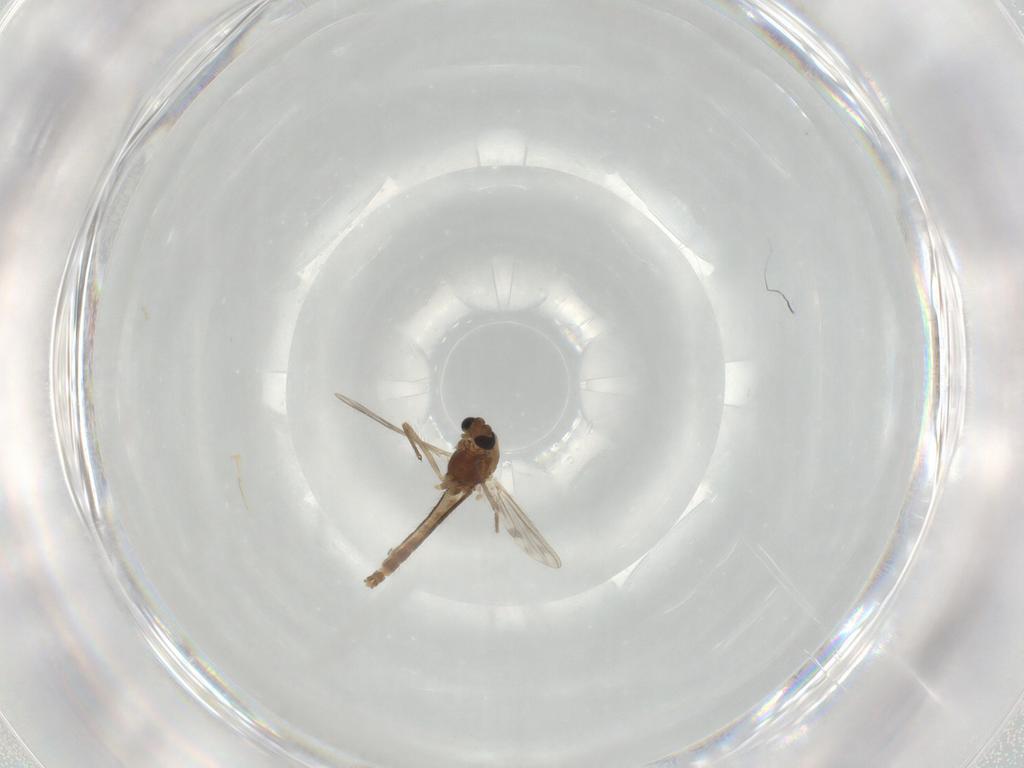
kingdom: Animalia
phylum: Arthropoda
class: Insecta
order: Diptera
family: Chironomidae
